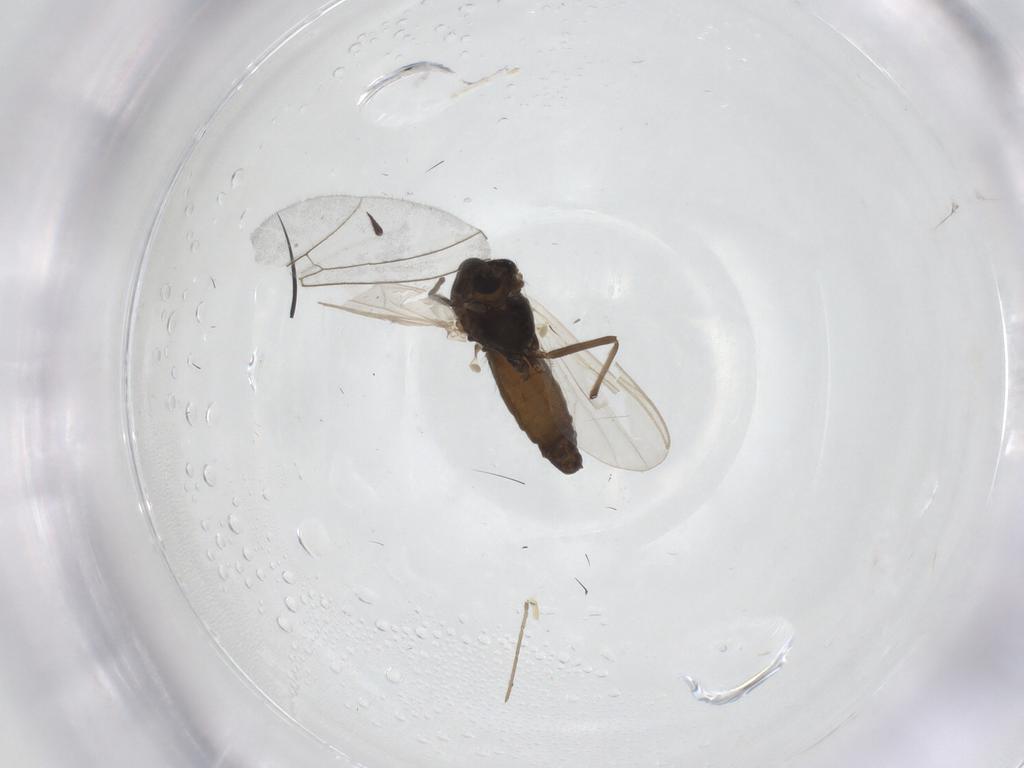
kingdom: Animalia
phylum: Arthropoda
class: Insecta
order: Diptera
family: Chironomidae
